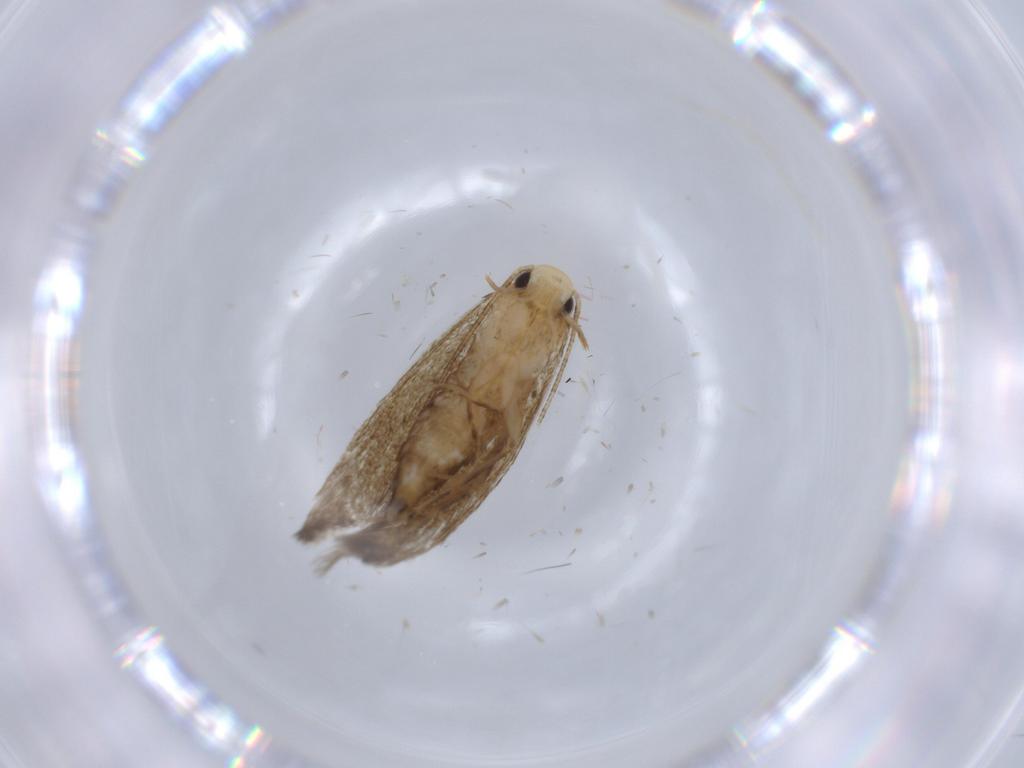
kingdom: Animalia
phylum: Arthropoda
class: Insecta
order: Lepidoptera
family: Tineidae
